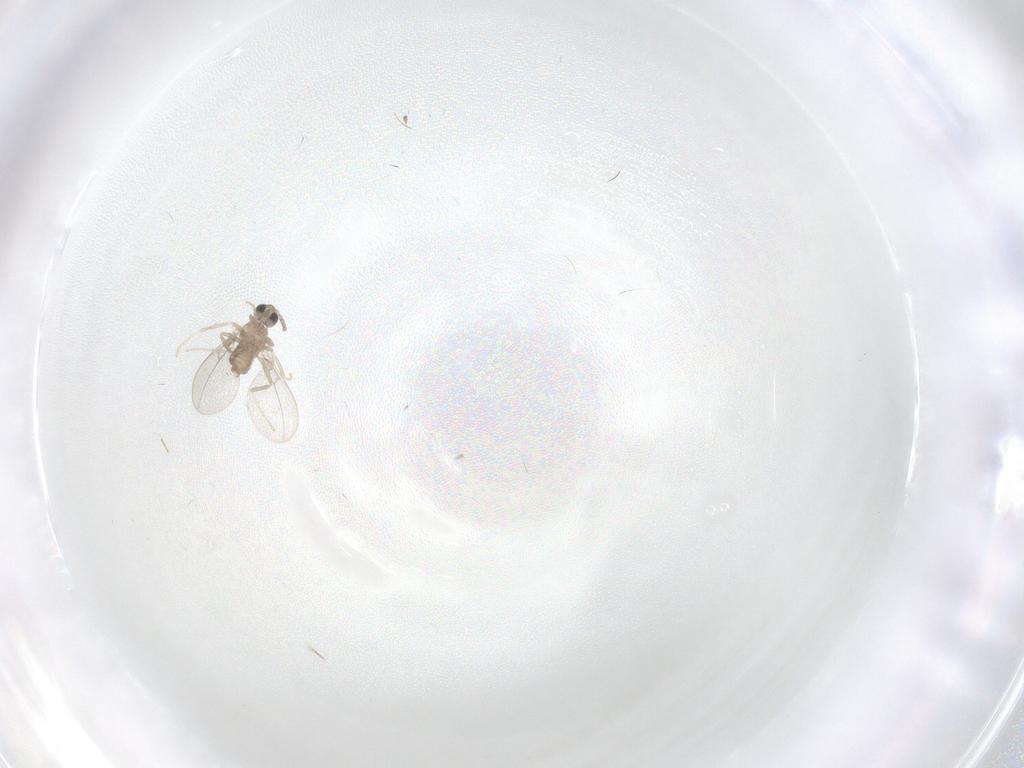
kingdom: Animalia
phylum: Arthropoda
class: Insecta
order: Diptera
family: Cecidomyiidae
